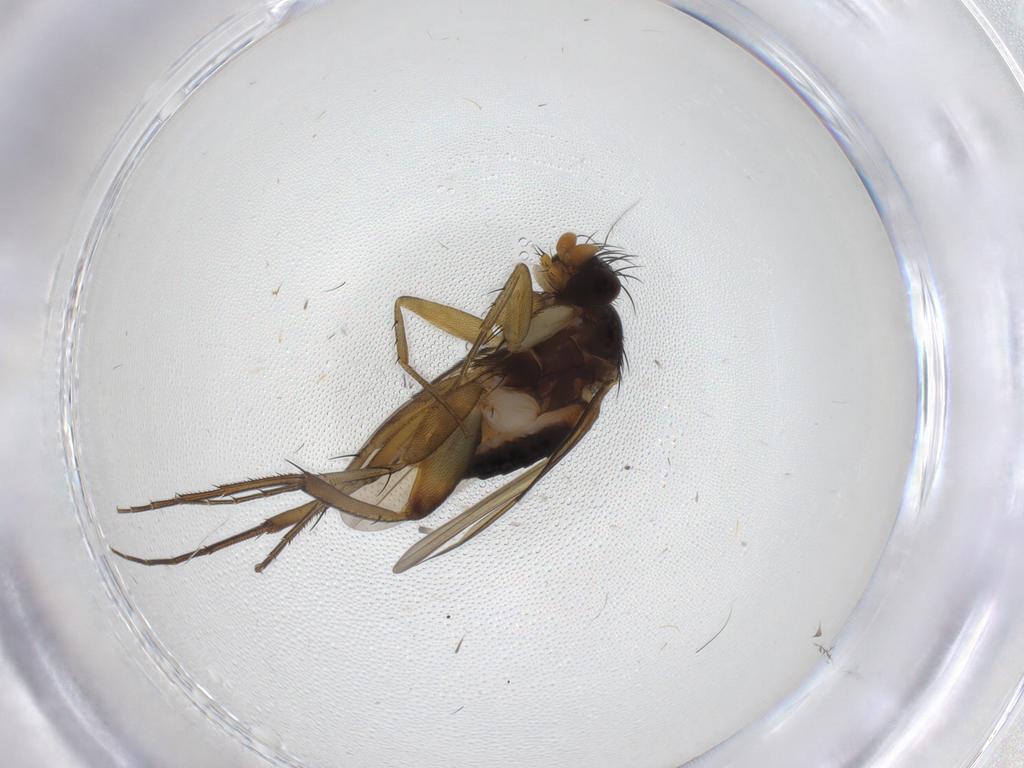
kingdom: Animalia
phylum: Arthropoda
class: Insecta
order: Diptera
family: Phoridae
